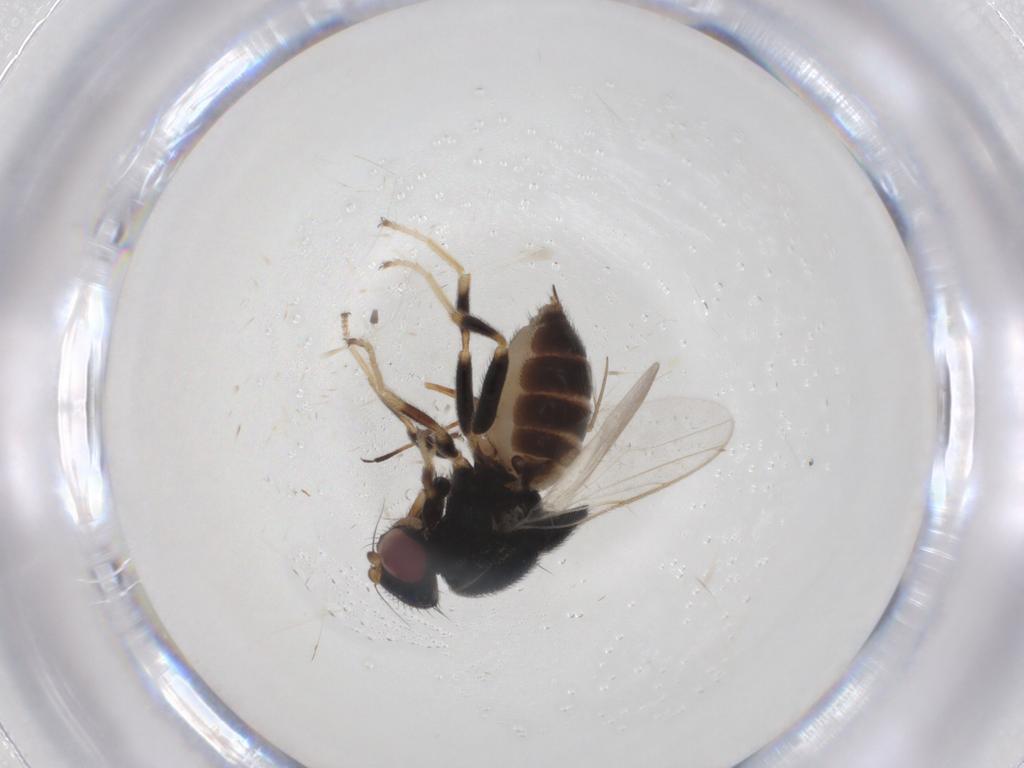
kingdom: Animalia
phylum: Arthropoda
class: Insecta
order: Diptera
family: Chloropidae
